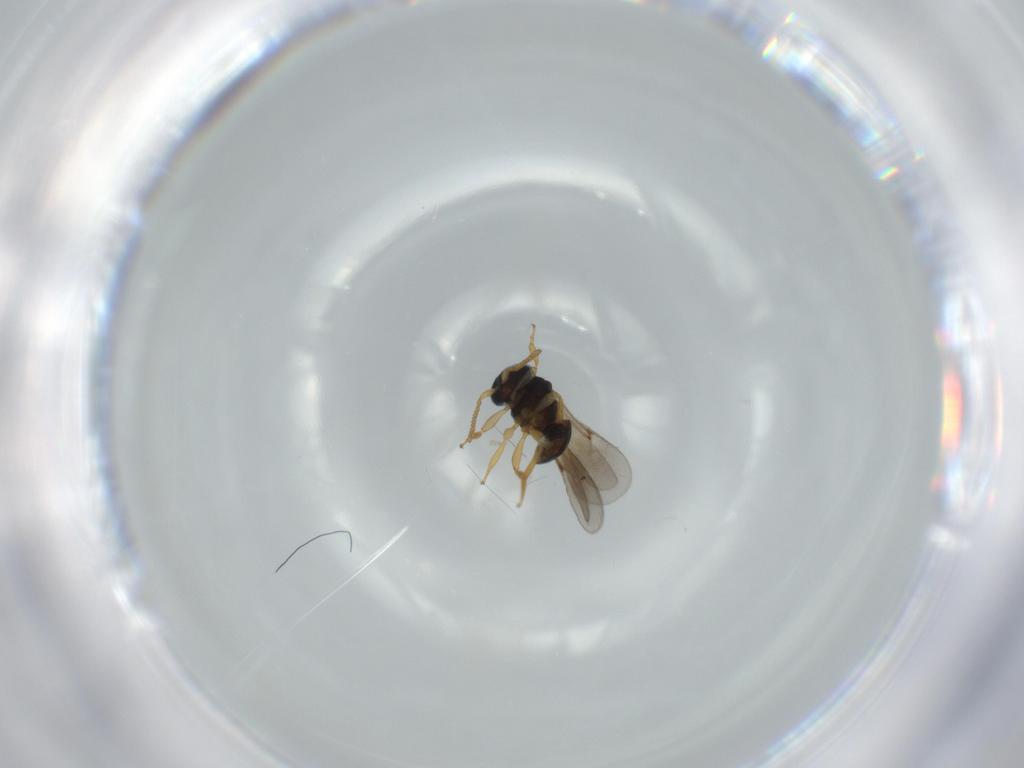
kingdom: Animalia
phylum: Arthropoda
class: Insecta
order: Hymenoptera
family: Scelionidae
